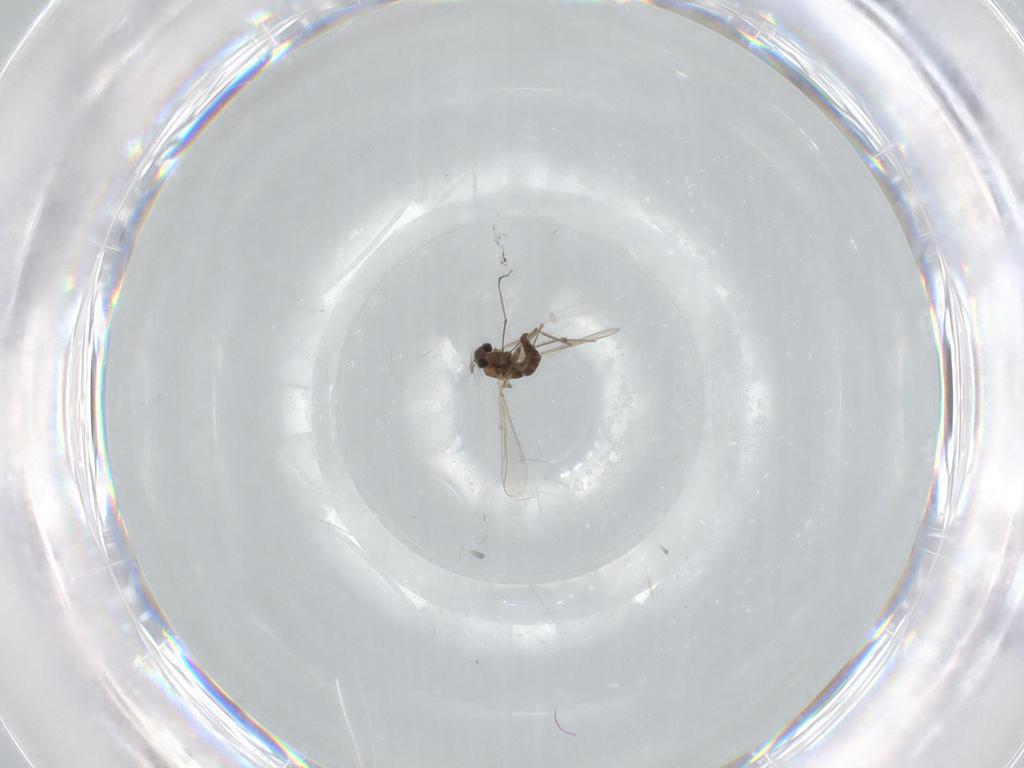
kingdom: Animalia
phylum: Arthropoda
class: Insecta
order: Diptera
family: Chironomidae
